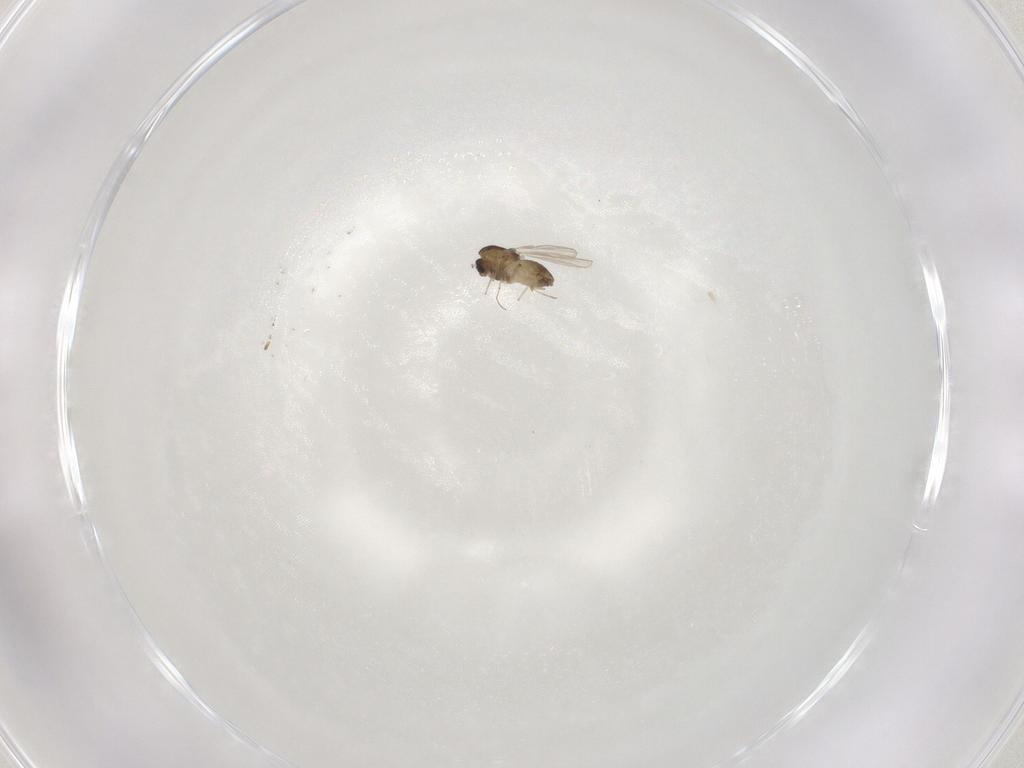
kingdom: Animalia
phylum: Arthropoda
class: Insecta
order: Diptera
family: Chironomidae
